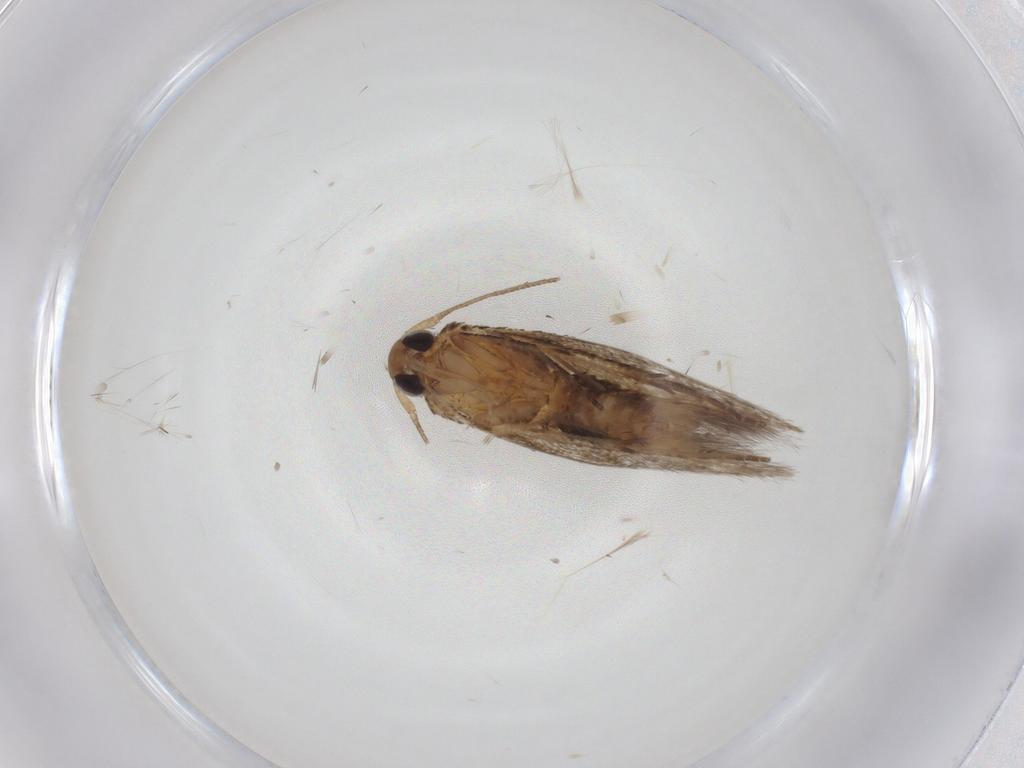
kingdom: Animalia
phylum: Arthropoda
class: Insecta
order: Lepidoptera
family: Cosmopterigidae
